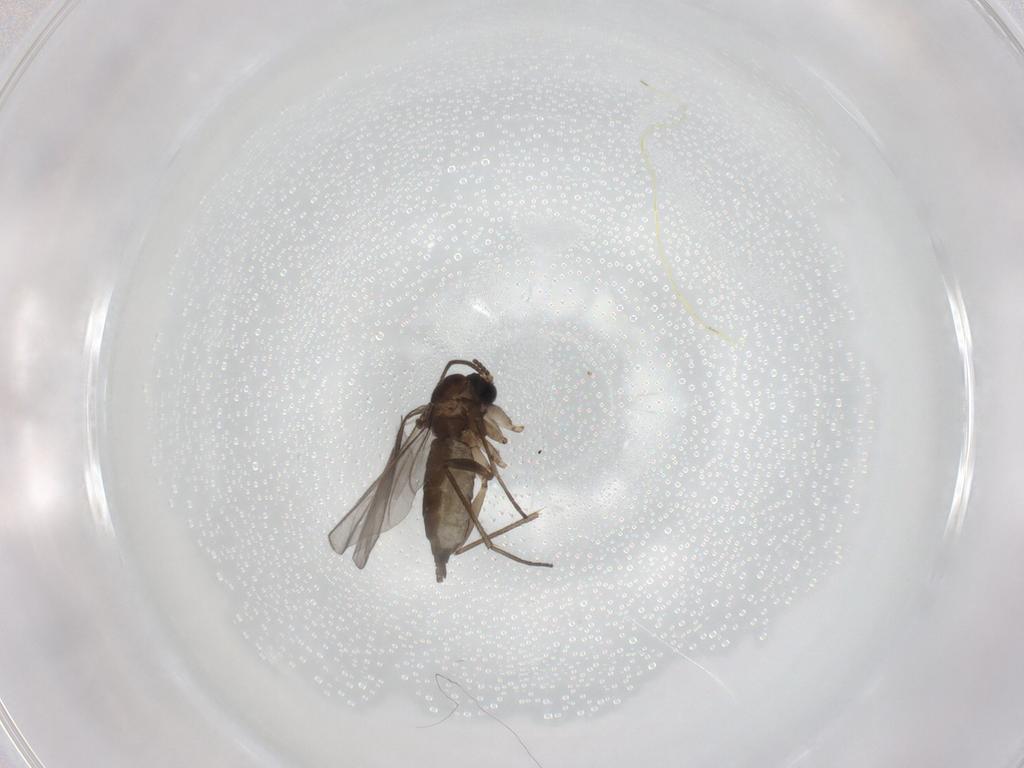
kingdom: Animalia
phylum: Arthropoda
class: Insecta
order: Diptera
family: Sciaridae
